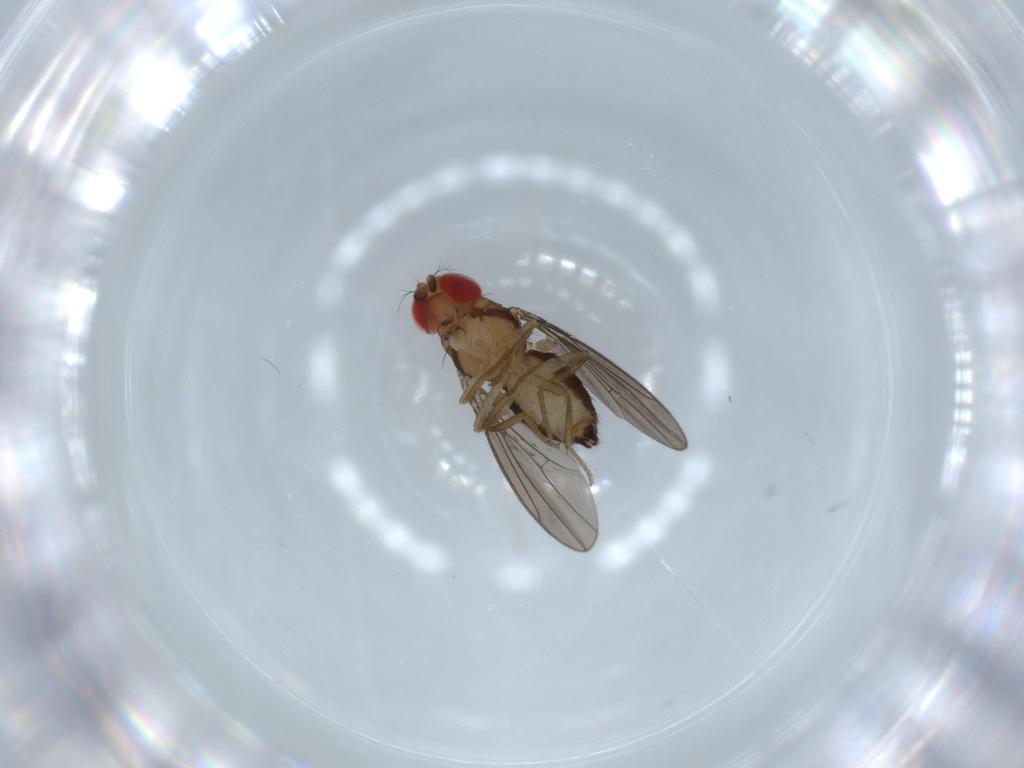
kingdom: Animalia
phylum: Arthropoda
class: Insecta
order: Diptera
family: Drosophilidae
